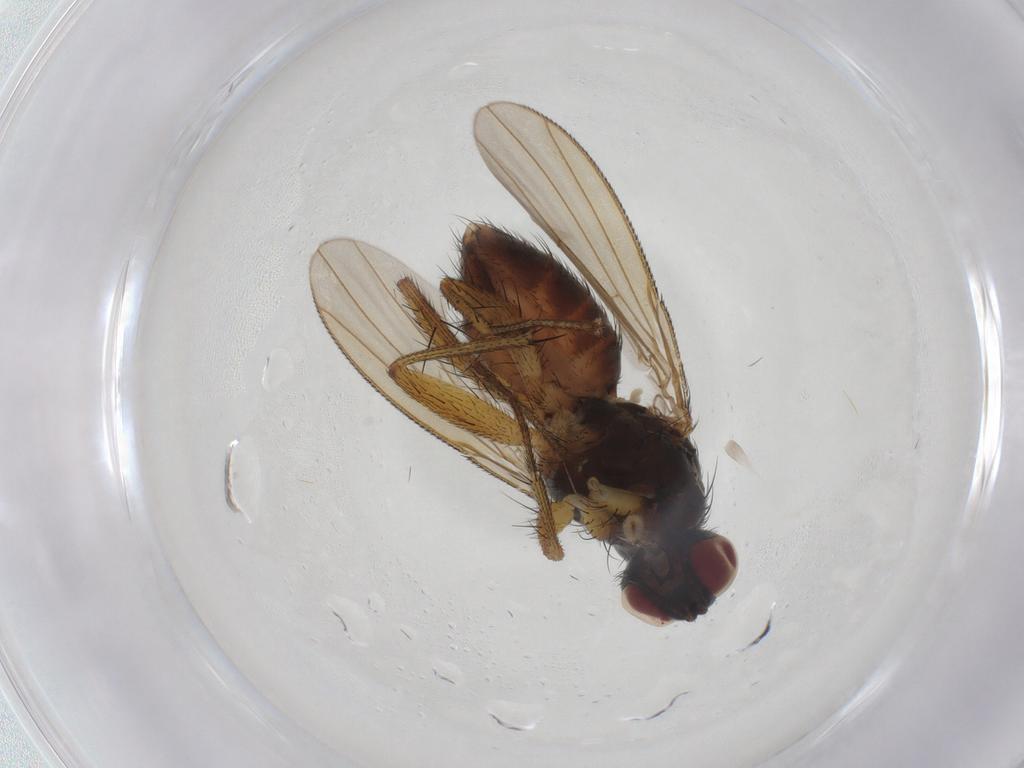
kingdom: Animalia
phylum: Arthropoda
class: Insecta
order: Diptera
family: Muscidae
